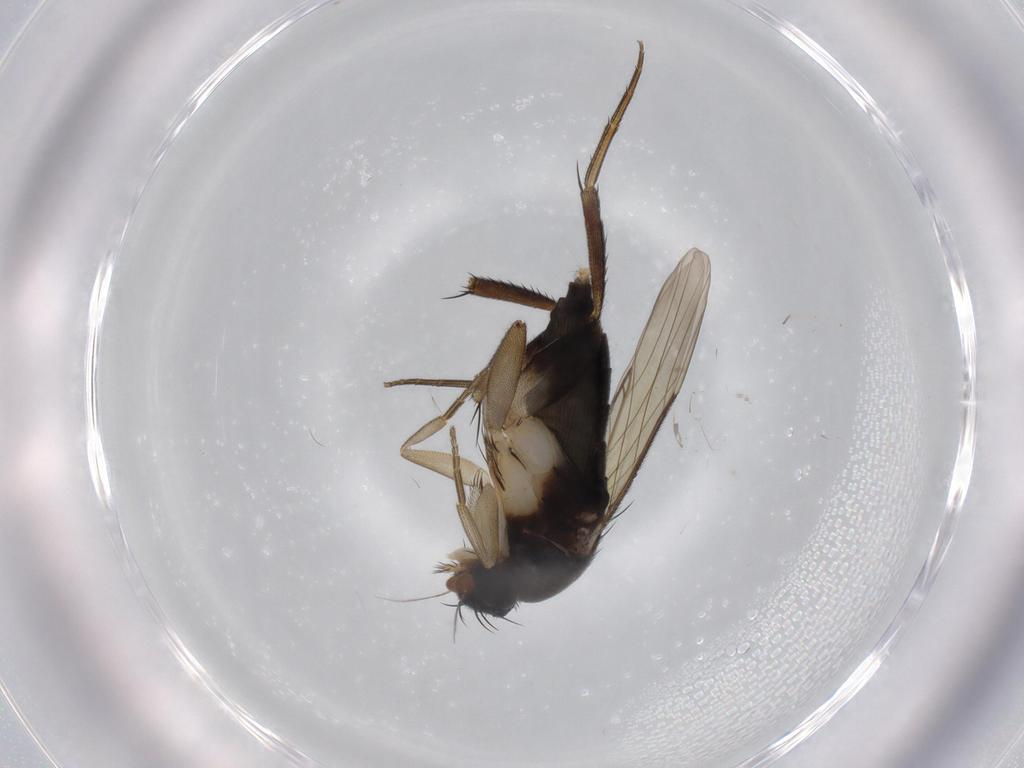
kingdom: Animalia
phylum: Arthropoda
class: Insecta
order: Diptera
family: Phoridae
